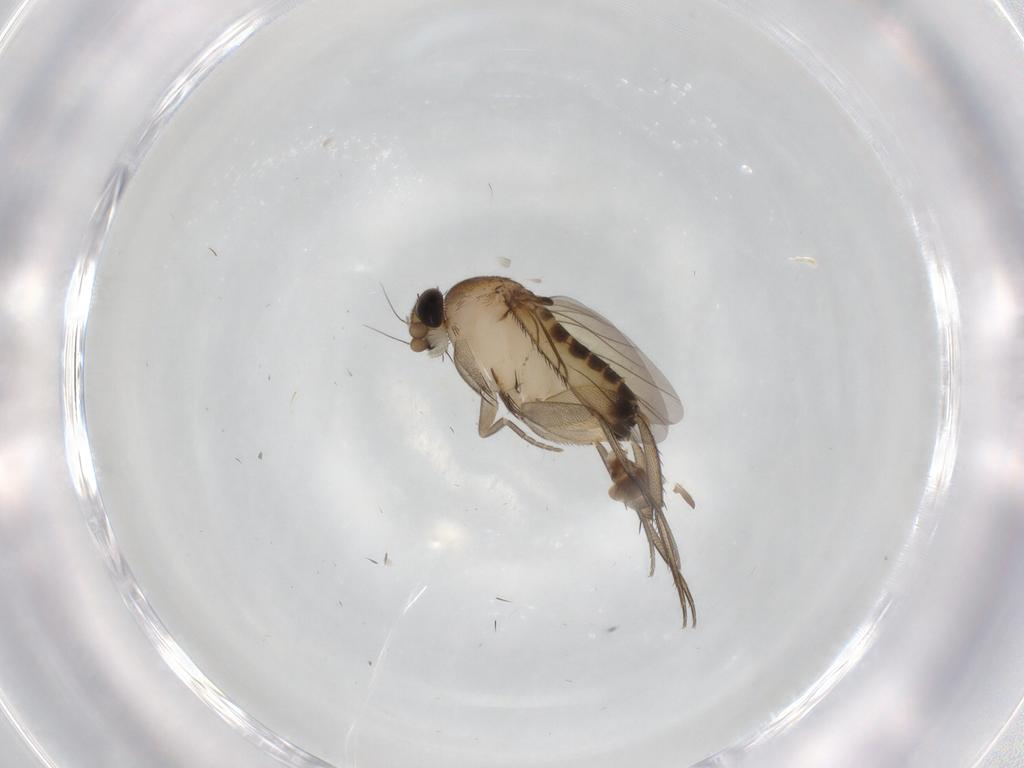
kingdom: Animalia
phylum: Arthropoda
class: Insecta
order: Diptera
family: Phoridae
